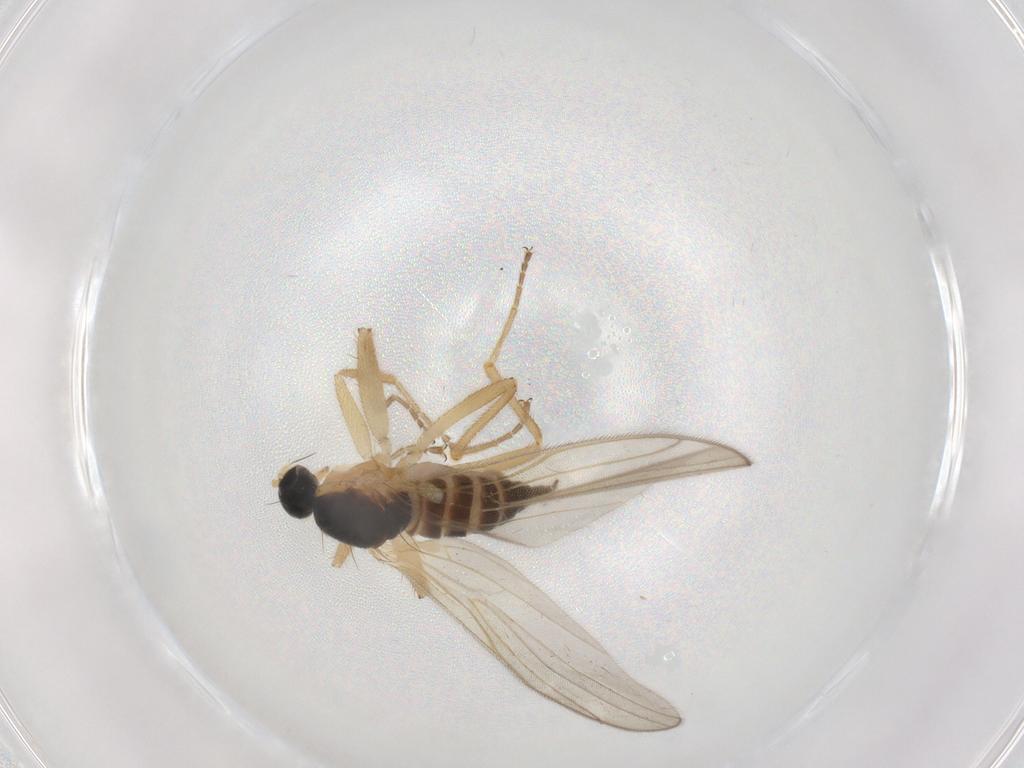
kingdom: Animalia
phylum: Arthropoda
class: Insecta
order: Diptera
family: Hybotidae
